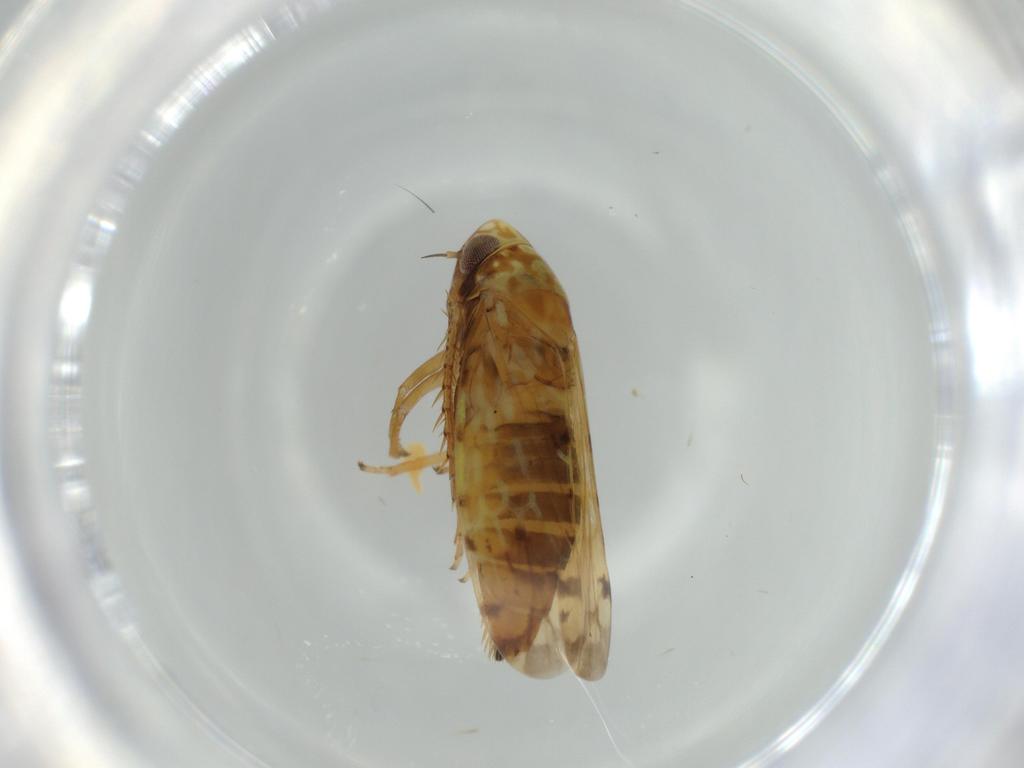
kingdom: Animalia
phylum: Arthropoda
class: Insecta
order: Hemiptera
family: Cicadellidae
